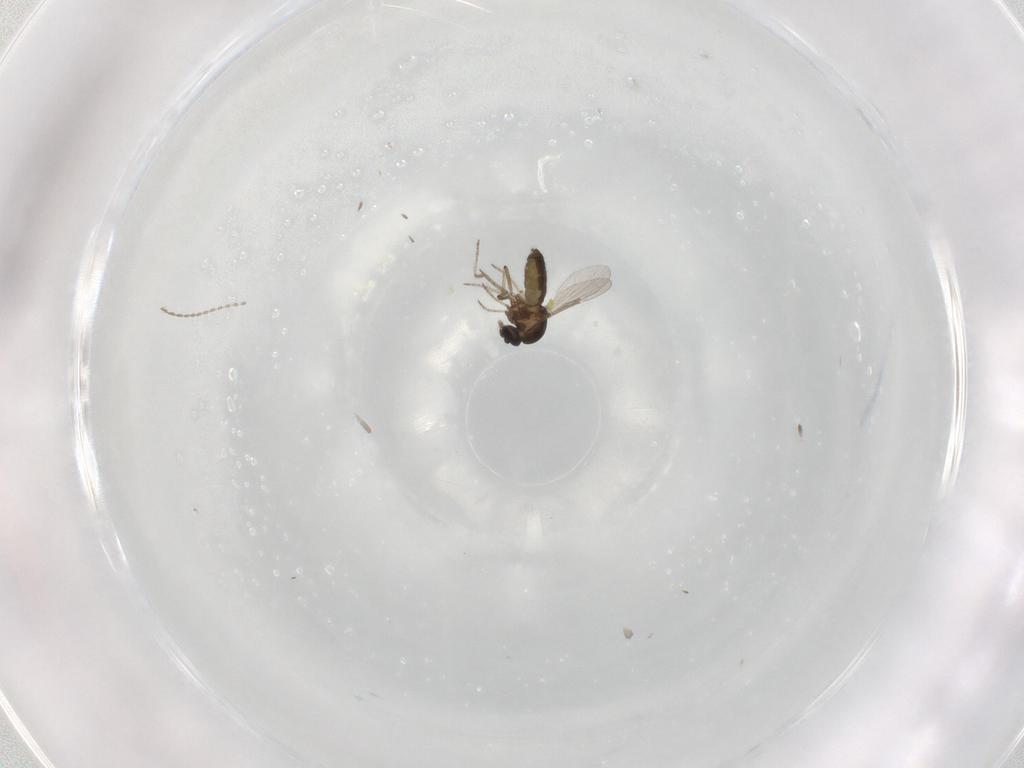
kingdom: Animalia
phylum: Arthropoda
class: Insecta
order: Diptera
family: Ceratopogonidae
